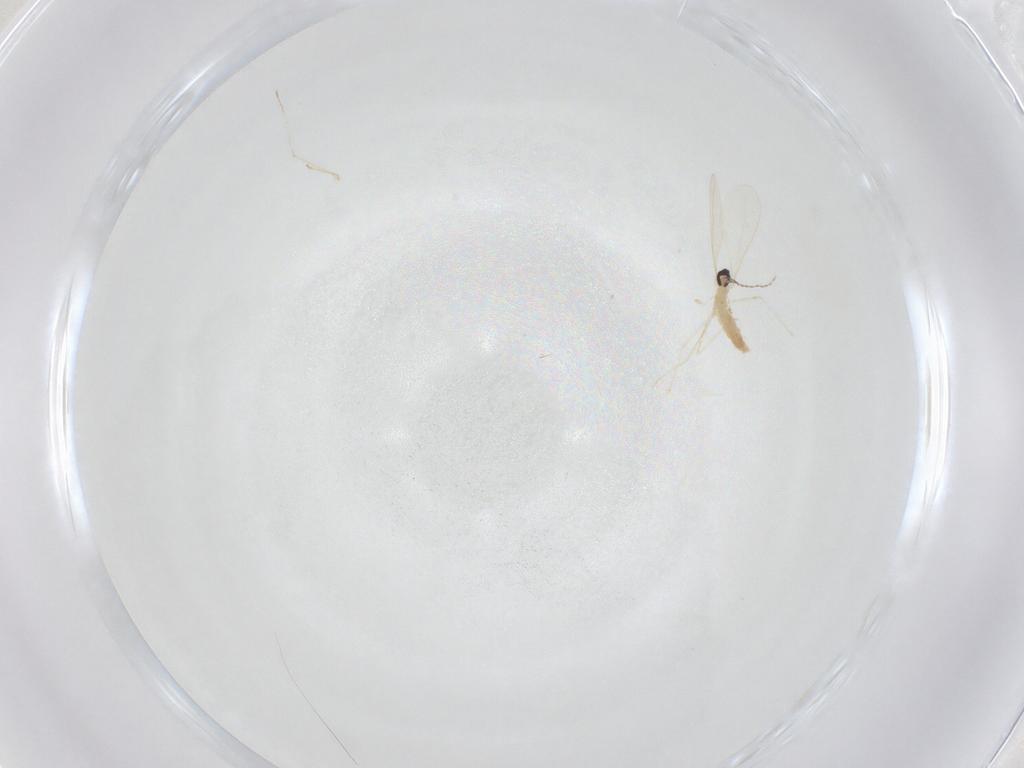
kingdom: Animalia
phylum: Arthropoda
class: Insecta
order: Diptera
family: Cecidomyiidae
